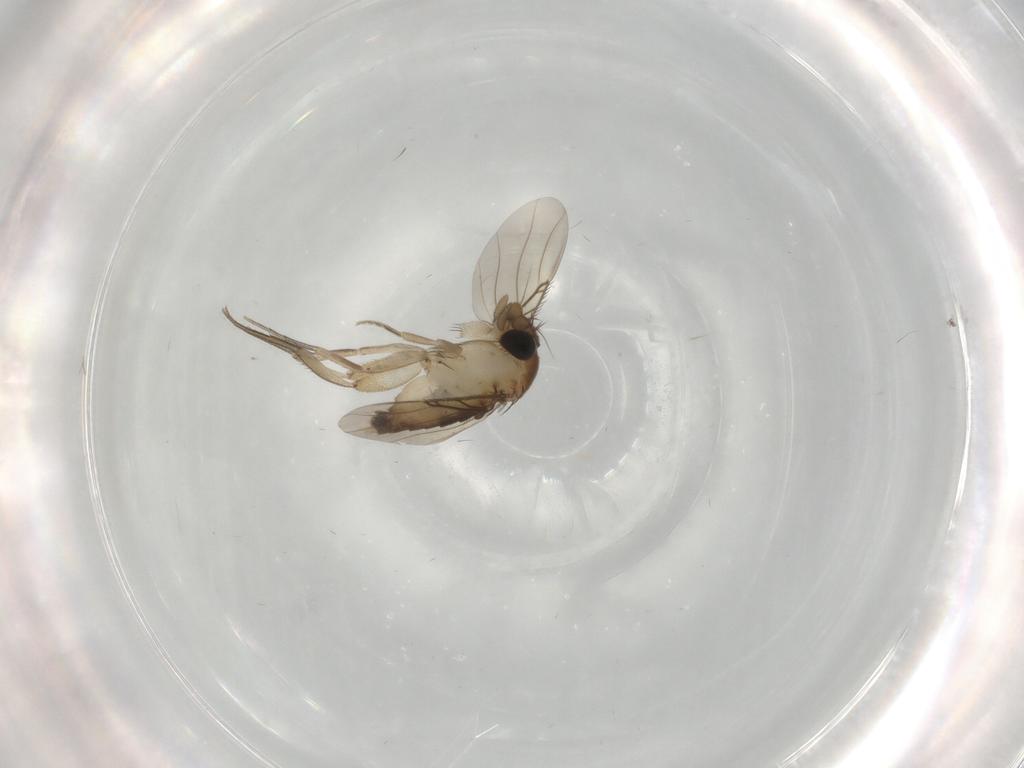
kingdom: Animalia
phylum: Arthropoda
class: Insecta
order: Diptera
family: Phoridae
